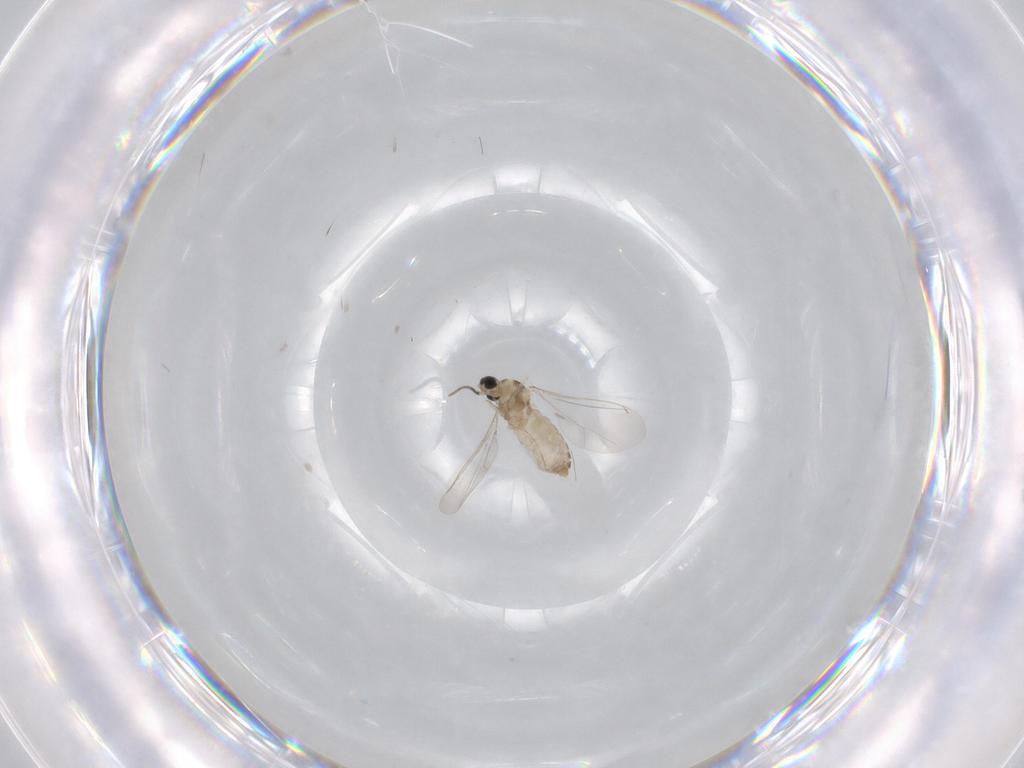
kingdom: Animalia
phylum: Arthropoda
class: Insecta
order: Diptera
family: Cecidomyiidae
